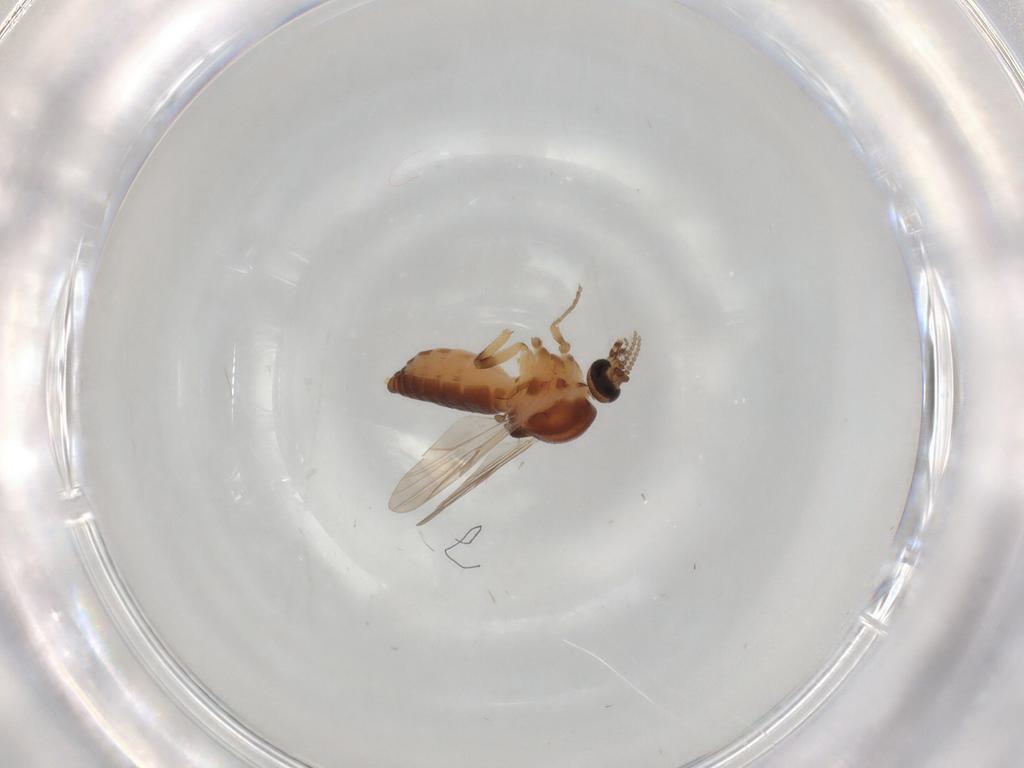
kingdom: Animalia
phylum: Arthropoda
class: Insecta
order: Diptera
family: Ceratopogonidae
